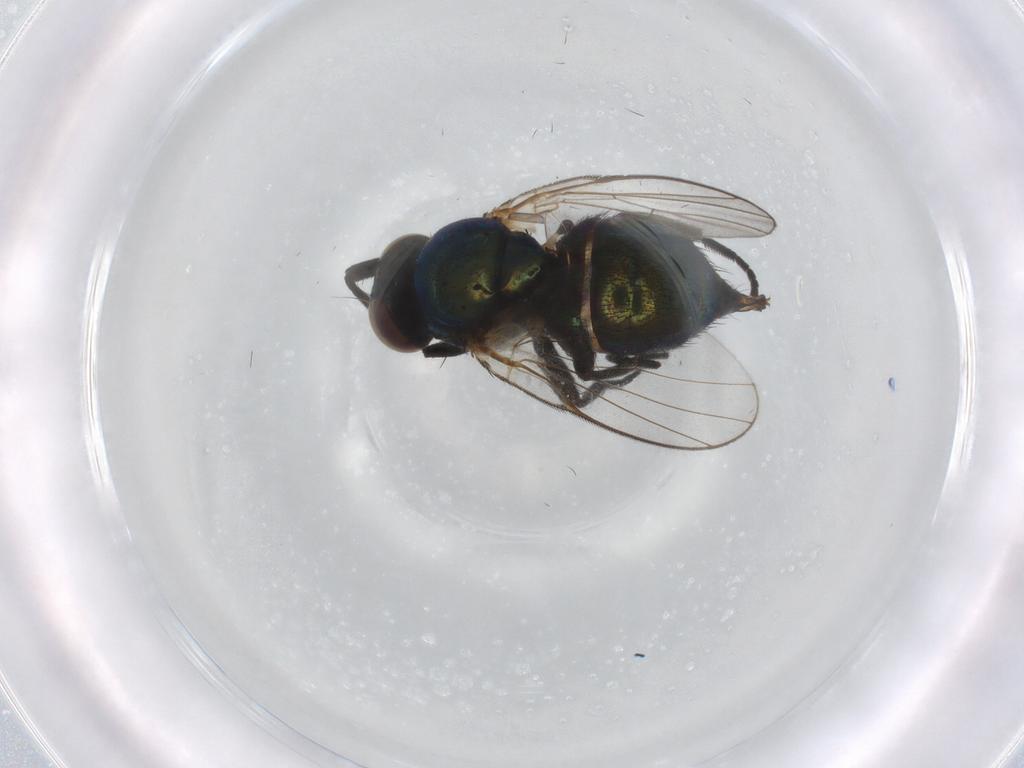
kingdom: Animalia
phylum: Arthropoda
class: Insecta
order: Diptera
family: Agromyzidae
